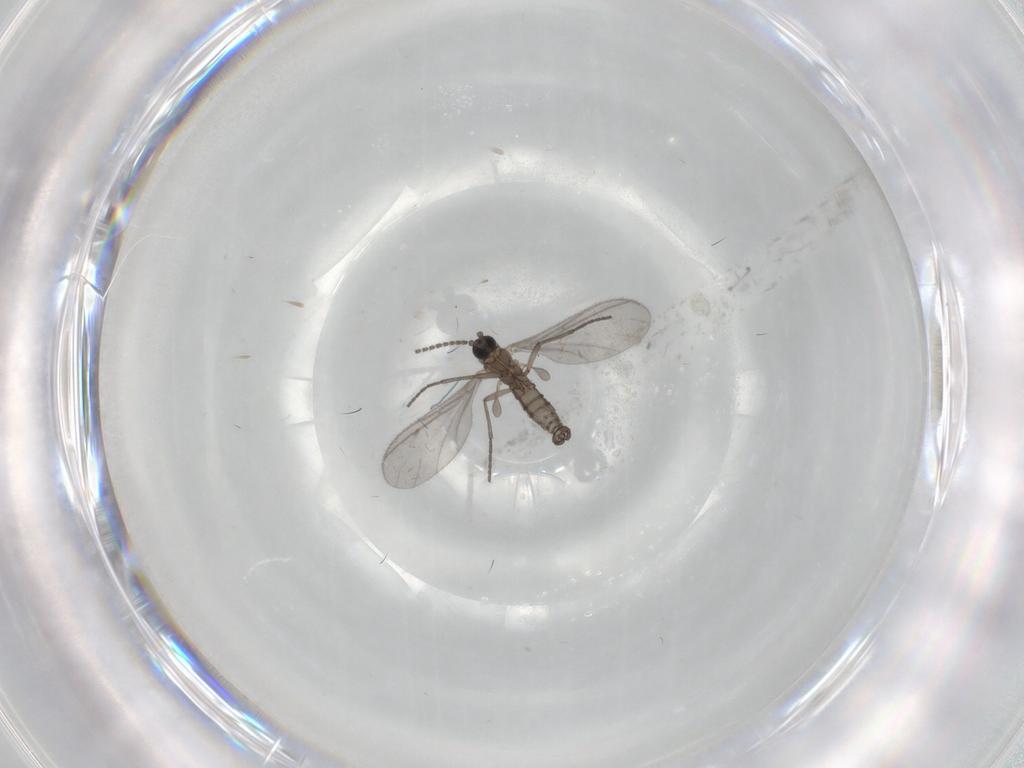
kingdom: Animalia
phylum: Arthropoda
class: Insecta
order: Diptera
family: Sciaridae
